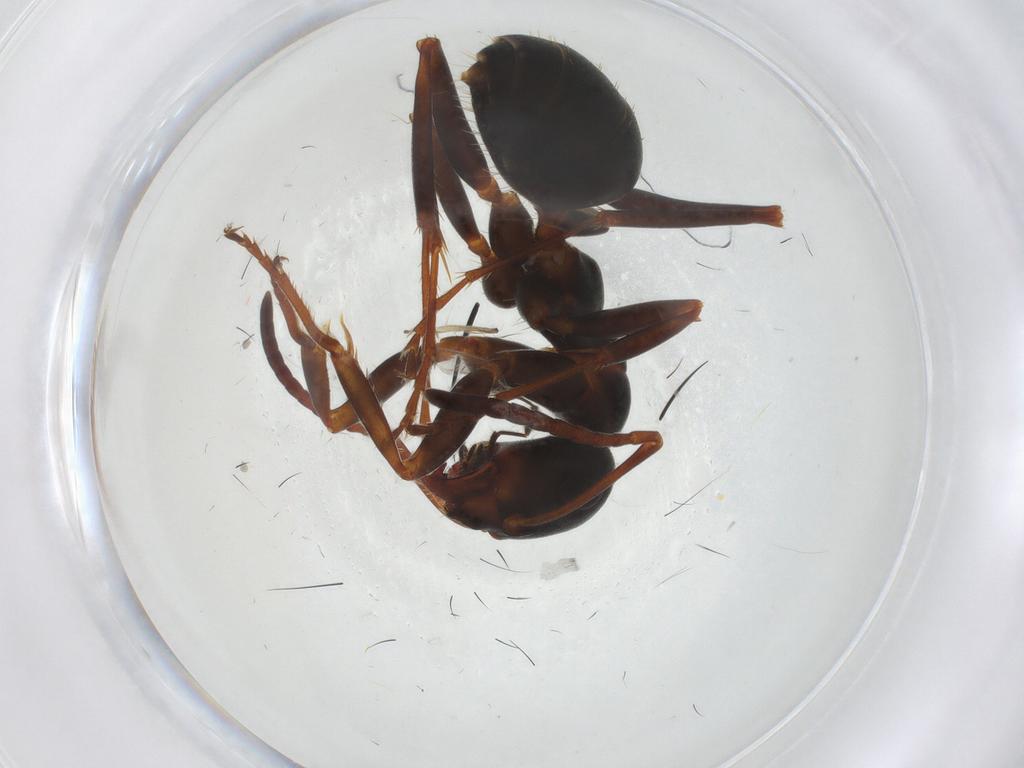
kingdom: Animalia
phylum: Arthropoda
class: Insecta
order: Hymenoptera
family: Formicidae
